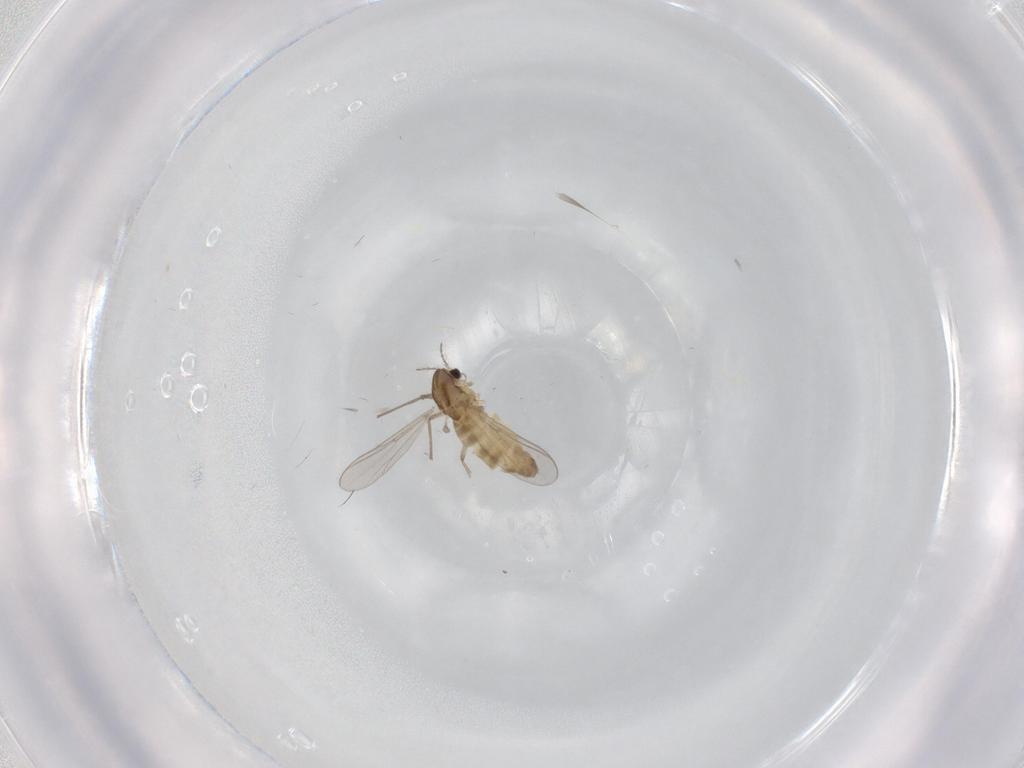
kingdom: Animalia
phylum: Arthropoda
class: Insecta
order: Diptera
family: Chironomidae
